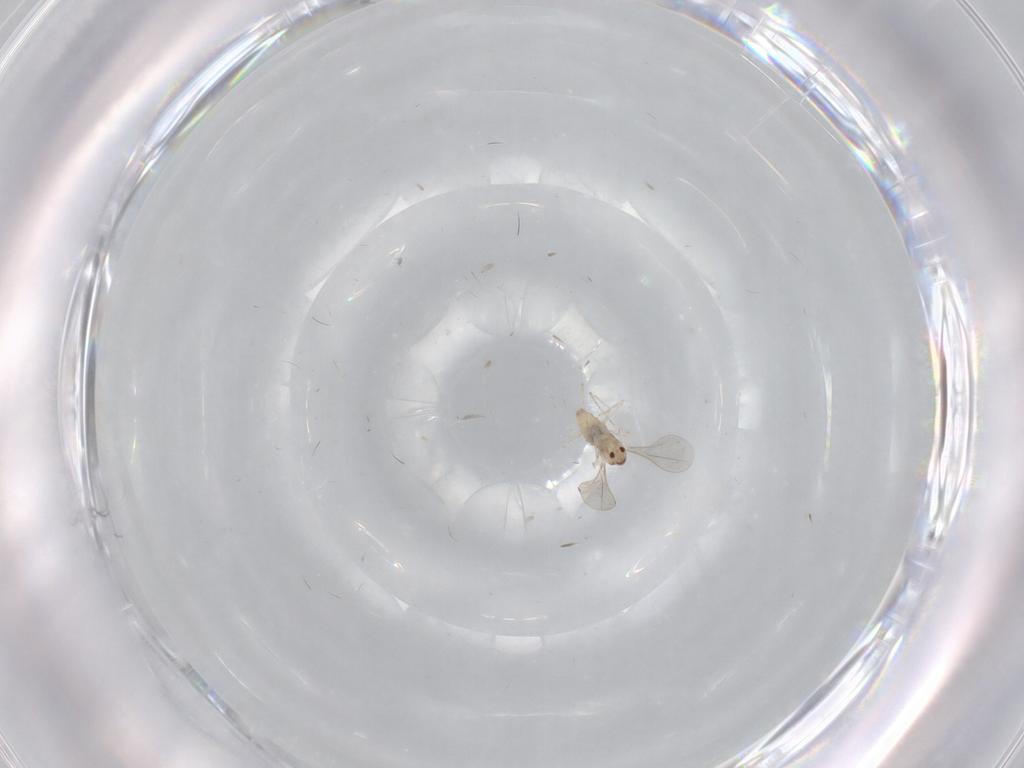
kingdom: Animalia
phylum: Arthropoda
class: Insecta
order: Diptera
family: Cecidomyiidae
